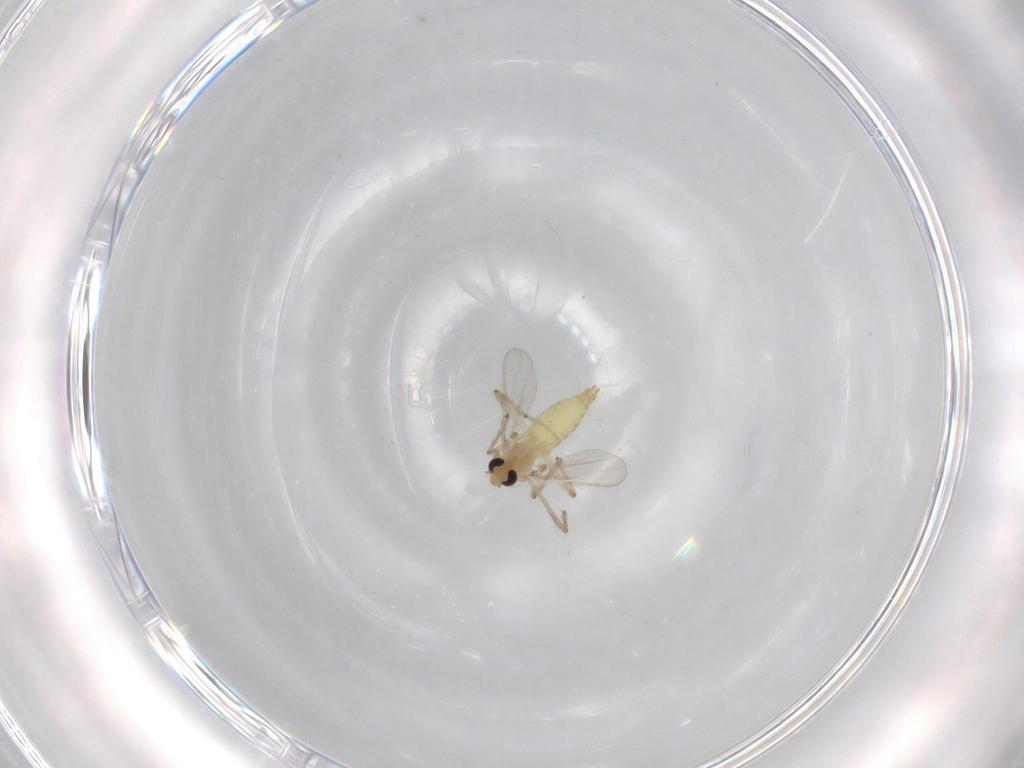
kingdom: Animalia
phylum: Arthropoda
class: Insecta
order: Diptera
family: Chironomidae
